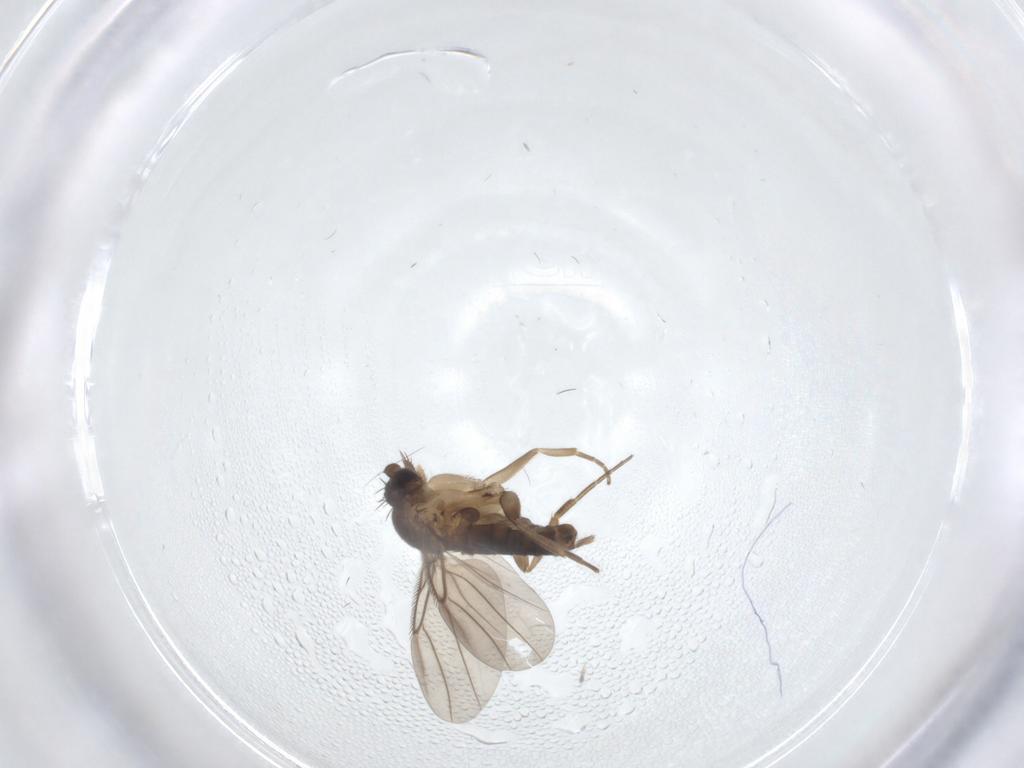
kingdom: Animalia
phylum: Arthropoda
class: Insecta
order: Diptera
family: Phoridae
